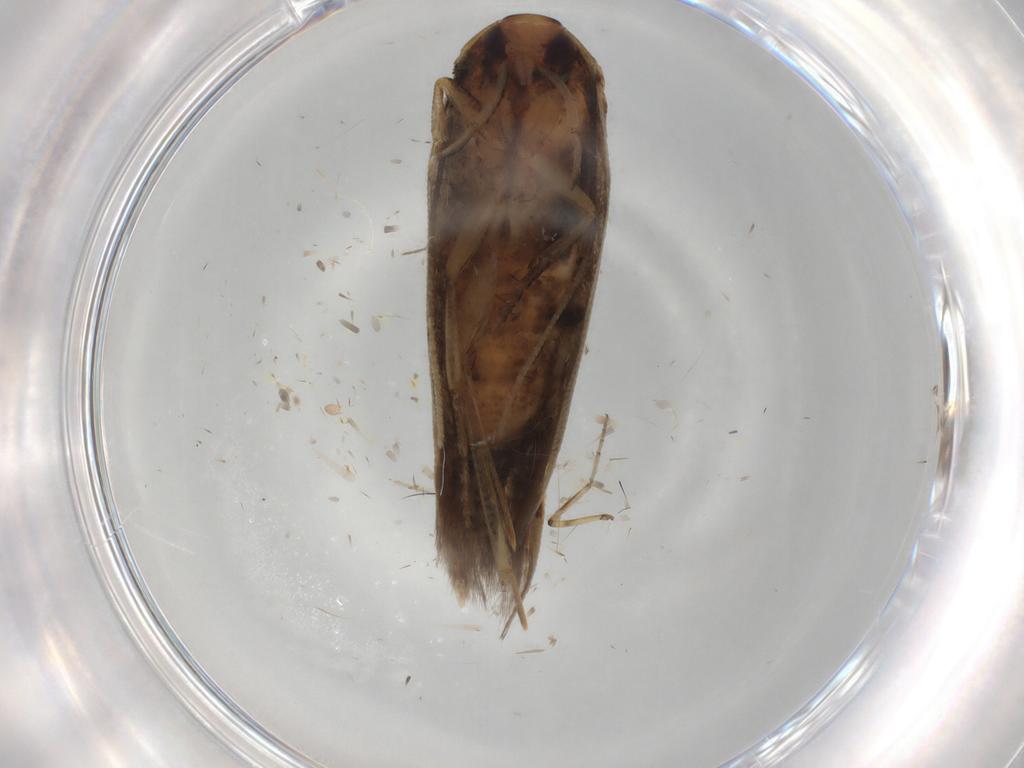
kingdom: Animalia
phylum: Arthropoda
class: Insecta
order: Lepidoptera
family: Cosmopterigidae
